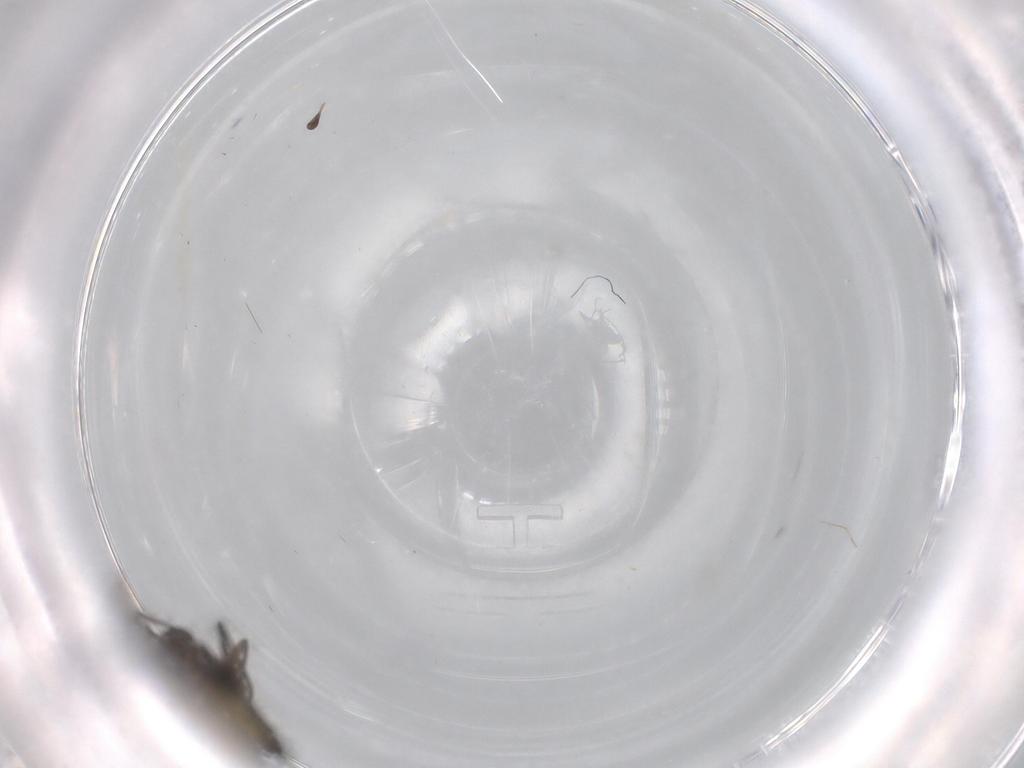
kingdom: Animalia
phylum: Arthropoda
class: Insecta
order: Diptera
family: Sciaridae
